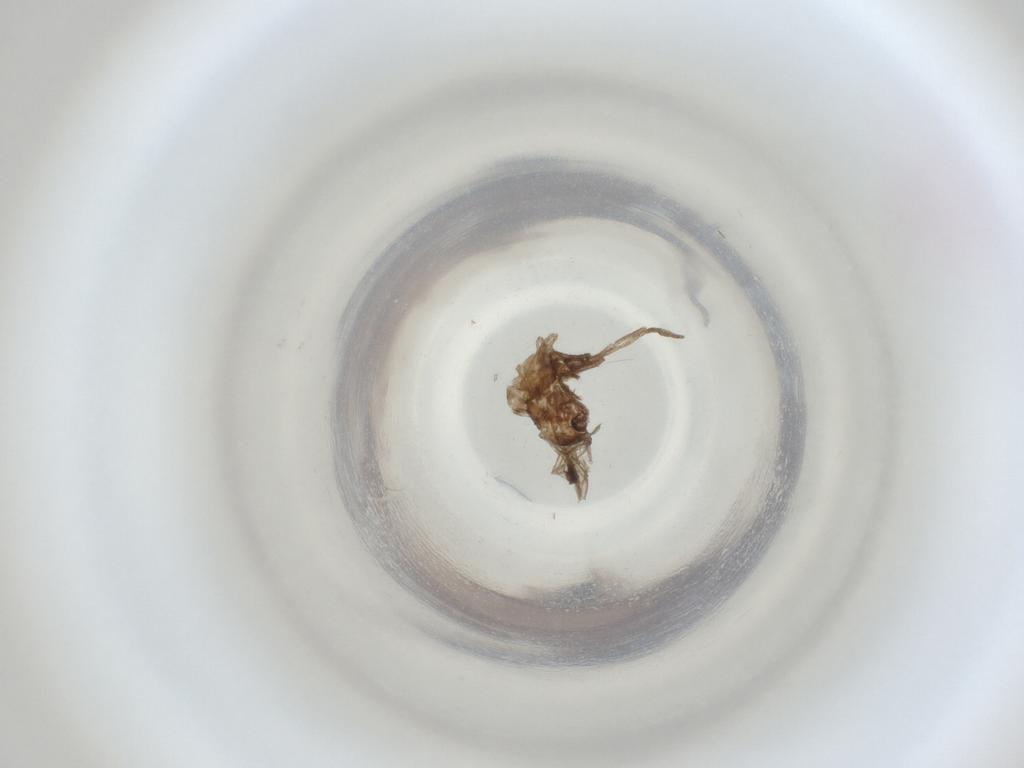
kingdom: Animalia
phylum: Arthropoda
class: Insecta
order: Diptera
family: Cecidomyiidae
